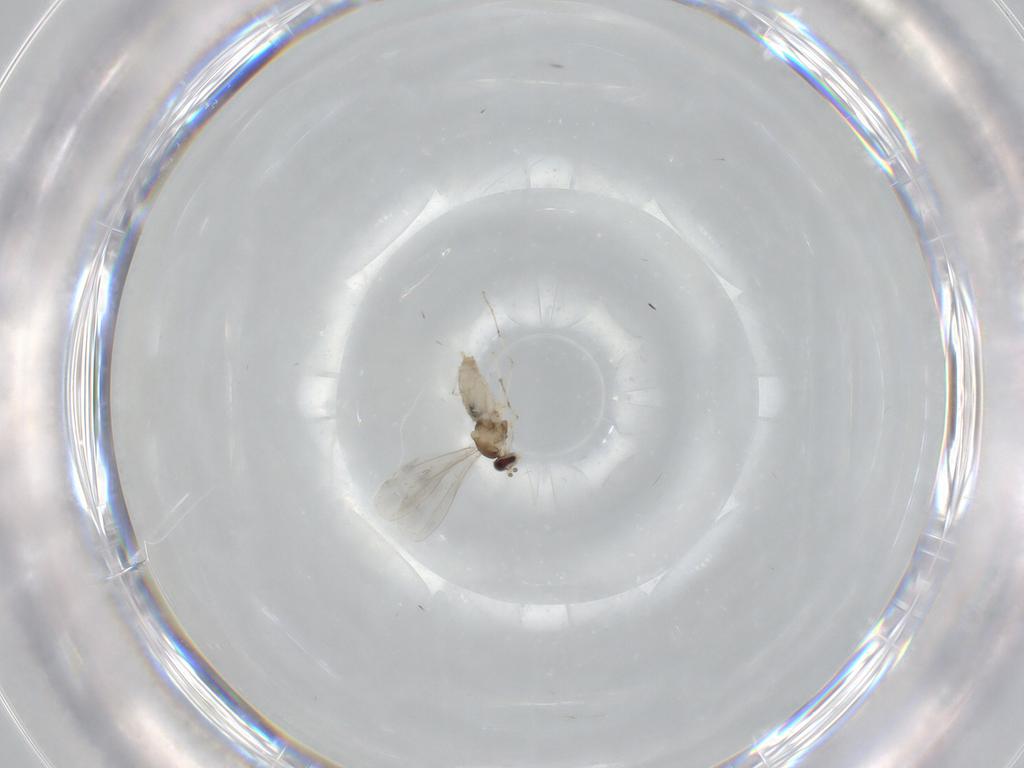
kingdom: Animalia
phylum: Arthropoda
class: Insecta
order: Diptera
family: Cecidomyiidae
